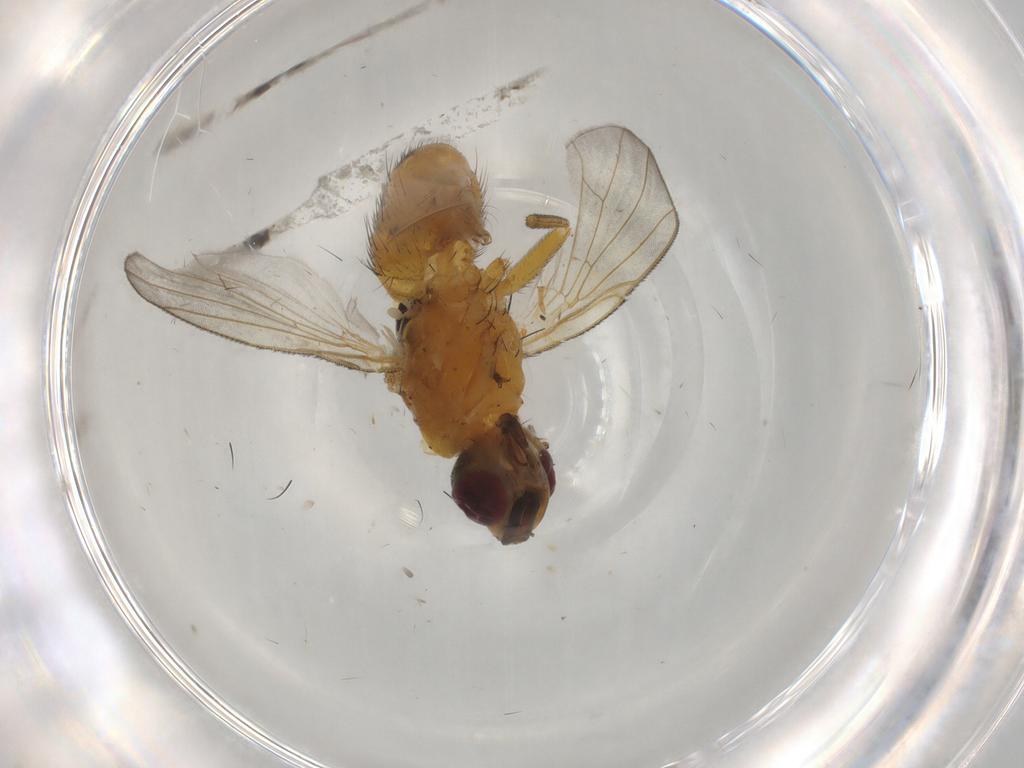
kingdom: Animalia
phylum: Arthropoda
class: Insecta
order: Diptera
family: Muscidae
